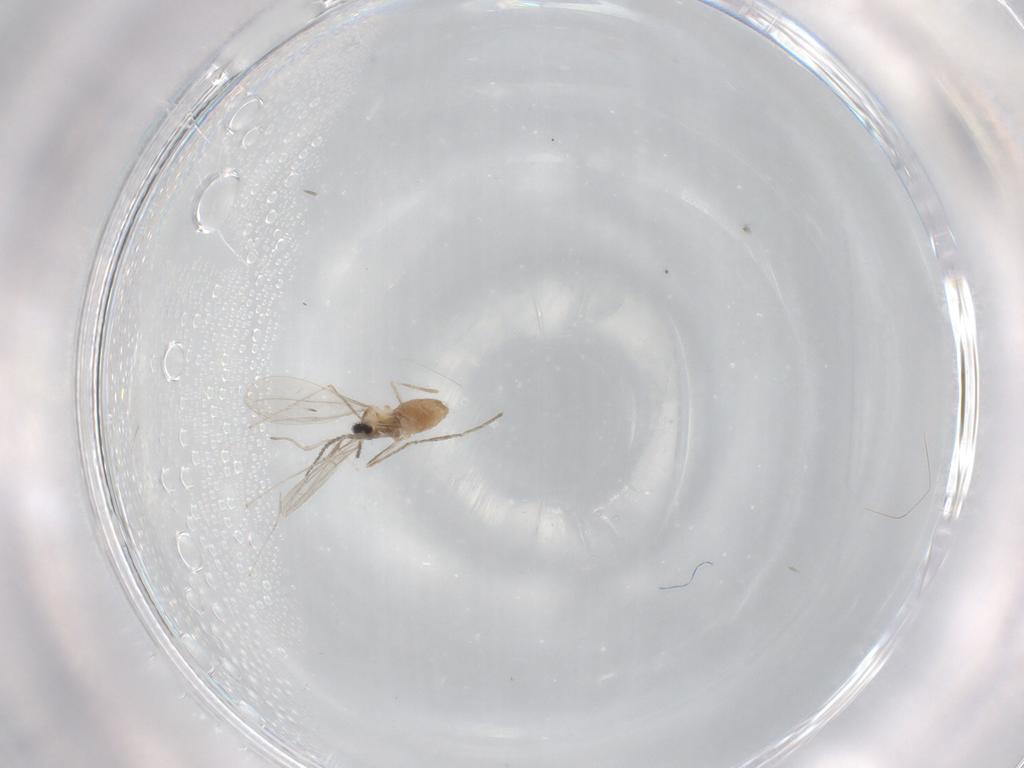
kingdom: Animalia
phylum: Arthropoda
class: Insecta
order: Diptera
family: Cecidomyiidae
